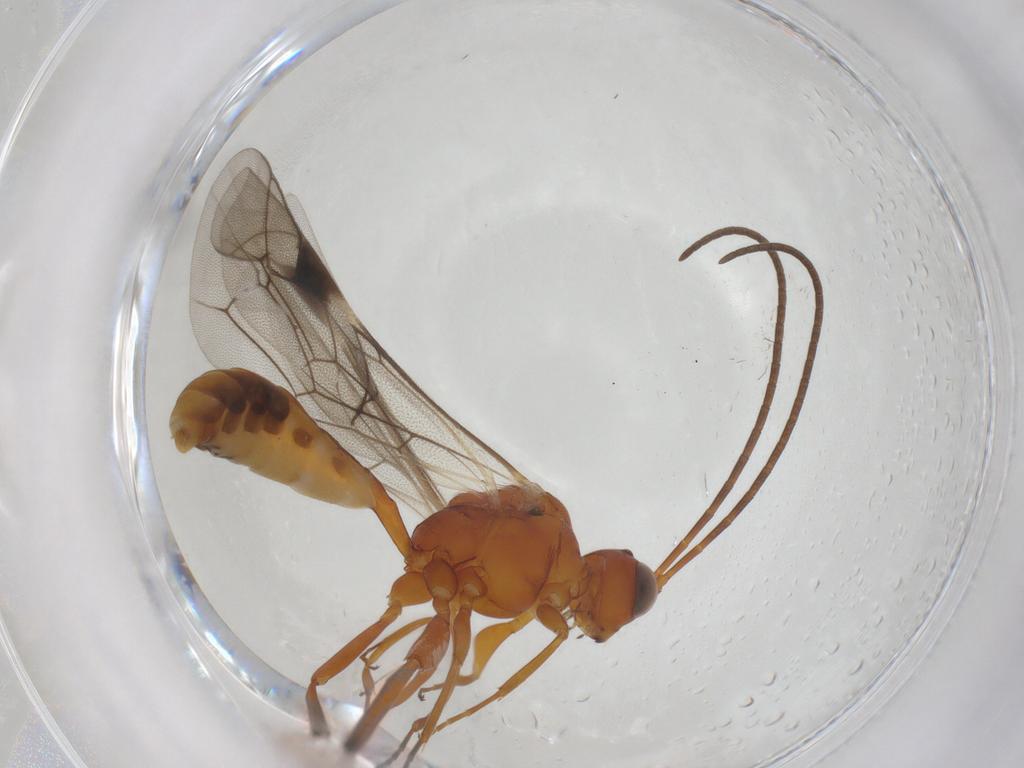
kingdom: Animalia
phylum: Arthropoda
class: Insecta
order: Hymenoptera
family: Ichneumonidae
